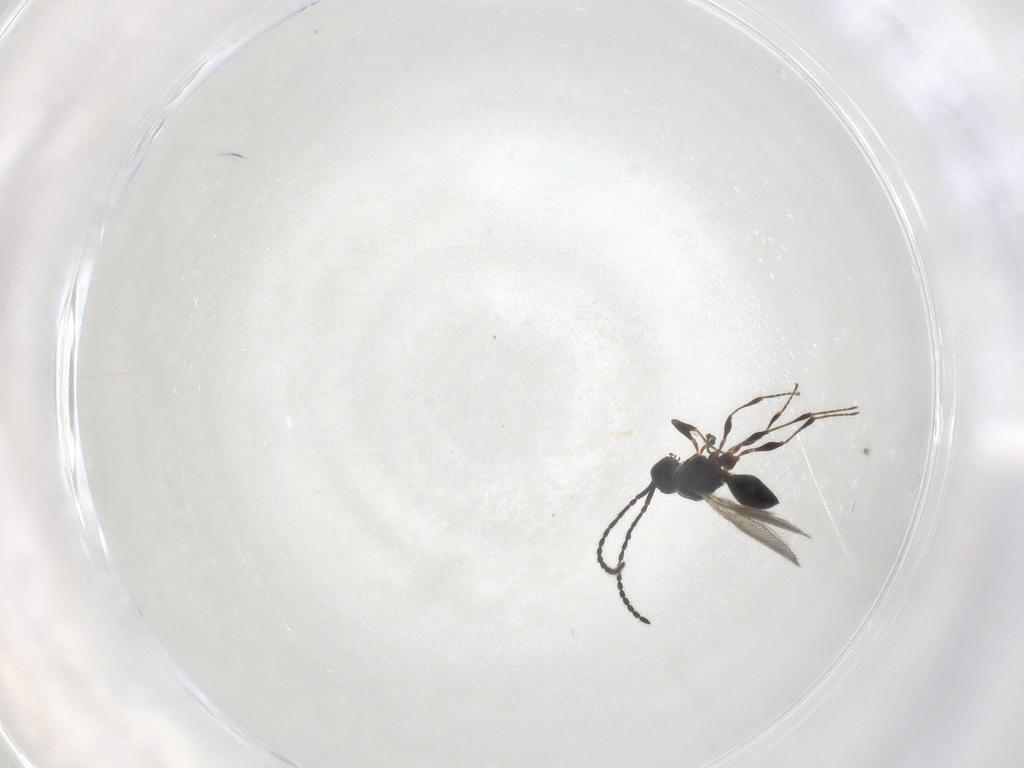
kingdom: Animalia
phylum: Arthropoda
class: Insecta
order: Hymenoptera
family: Diapriidae
